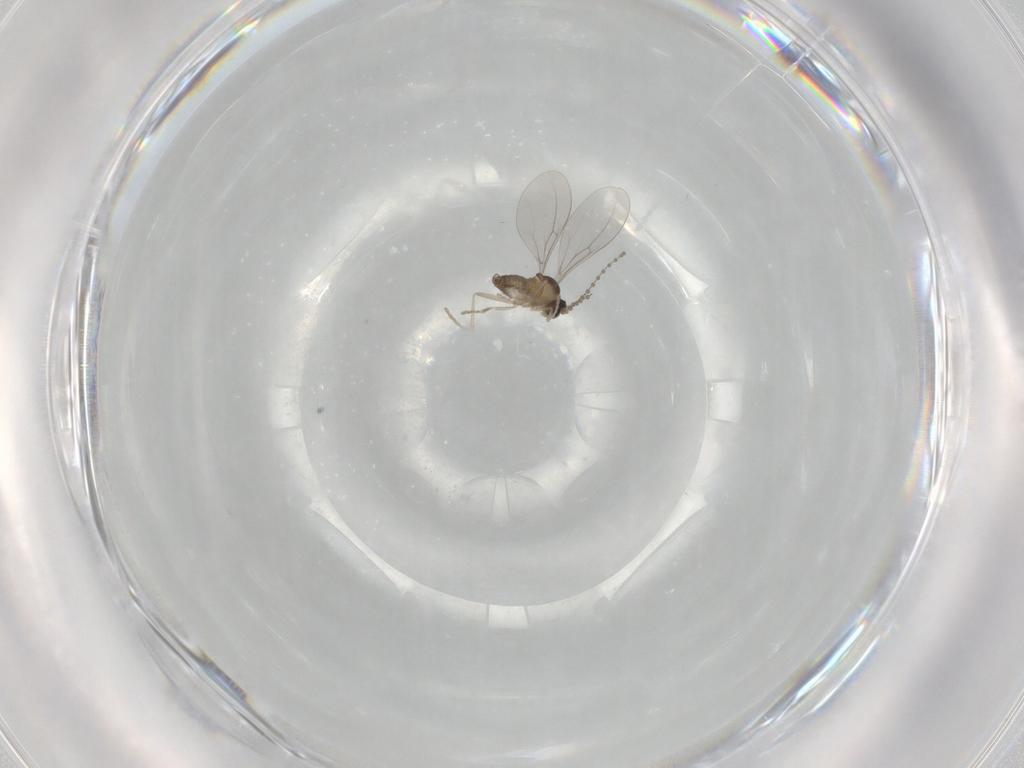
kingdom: Animalia
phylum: Arthropoda
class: Insecta
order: Diptera
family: Cecidomyiidae
